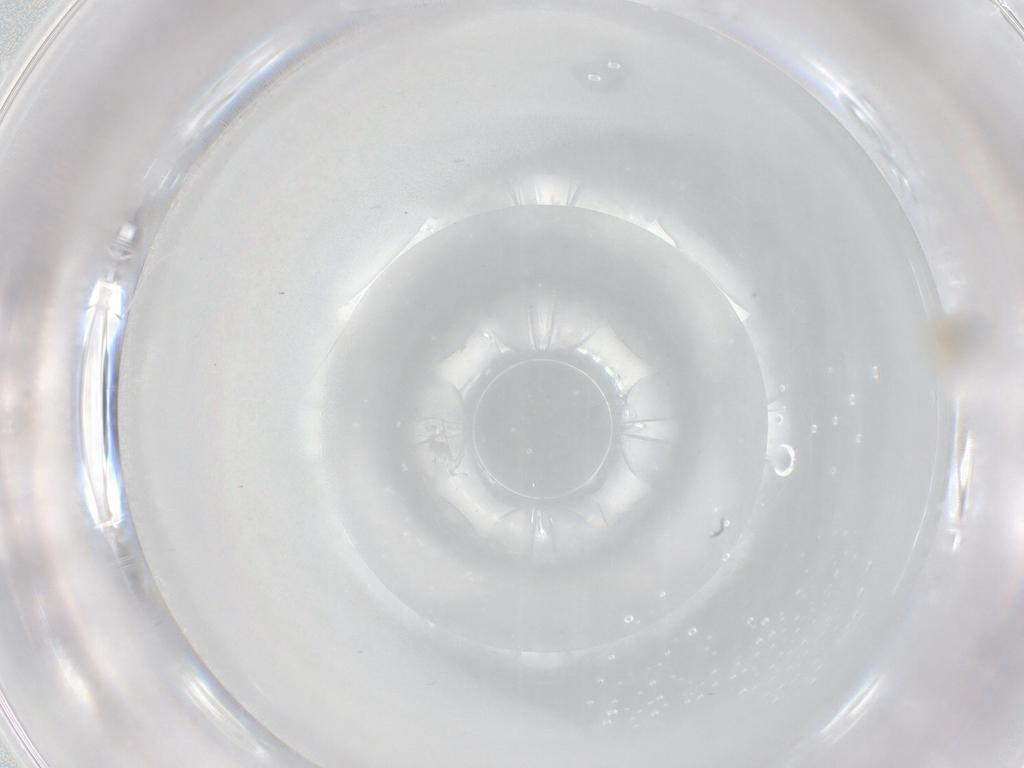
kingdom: Animalia
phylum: Arthropoda
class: Insecta
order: Diptera
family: Cecidomyiidae
